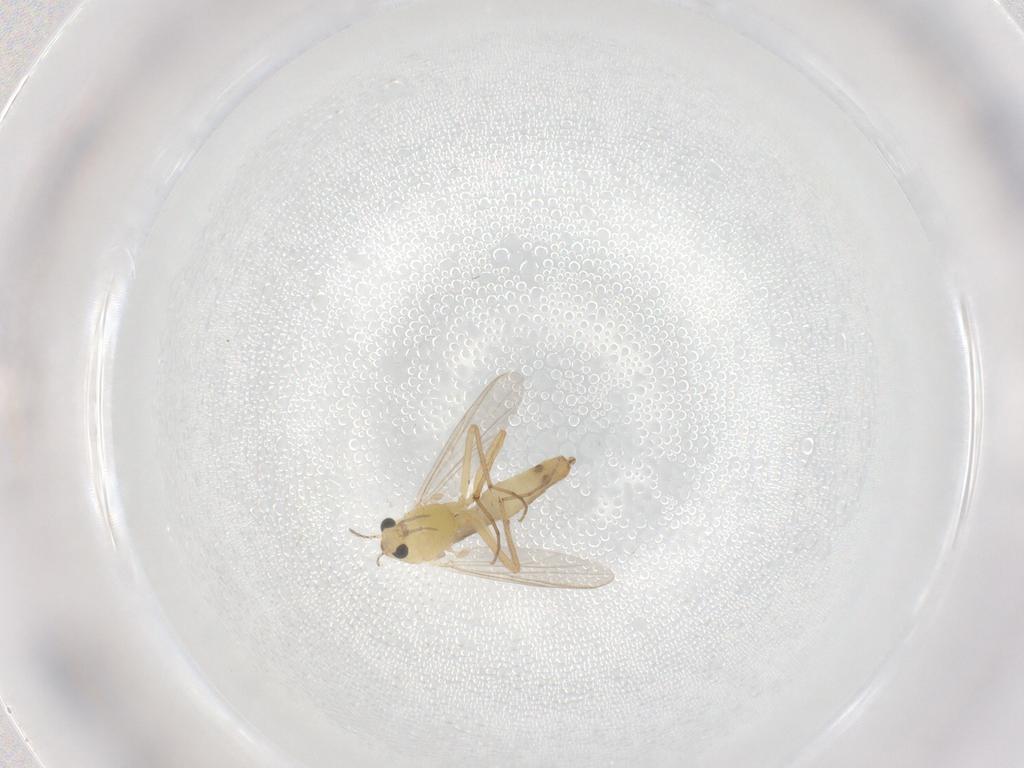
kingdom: Animalia
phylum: Arthropoda
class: Insecta
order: Diptera
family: Chironomidae
